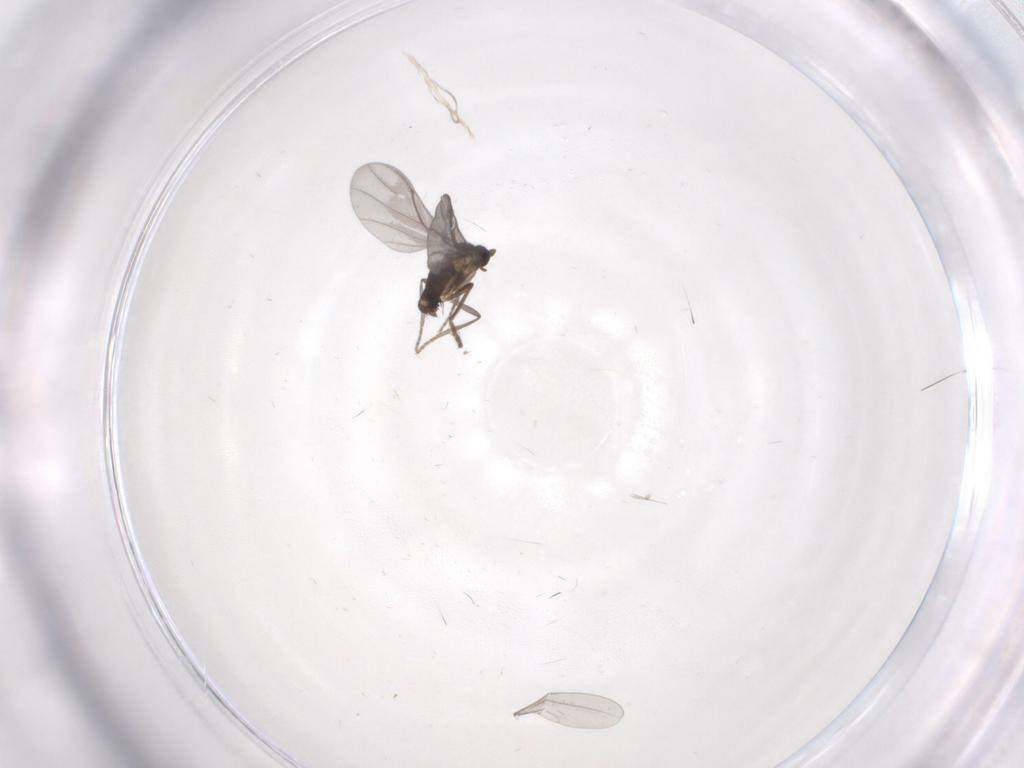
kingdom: Animalia
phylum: Arthropoda
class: Insecta
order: Diptera
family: Phoridae
